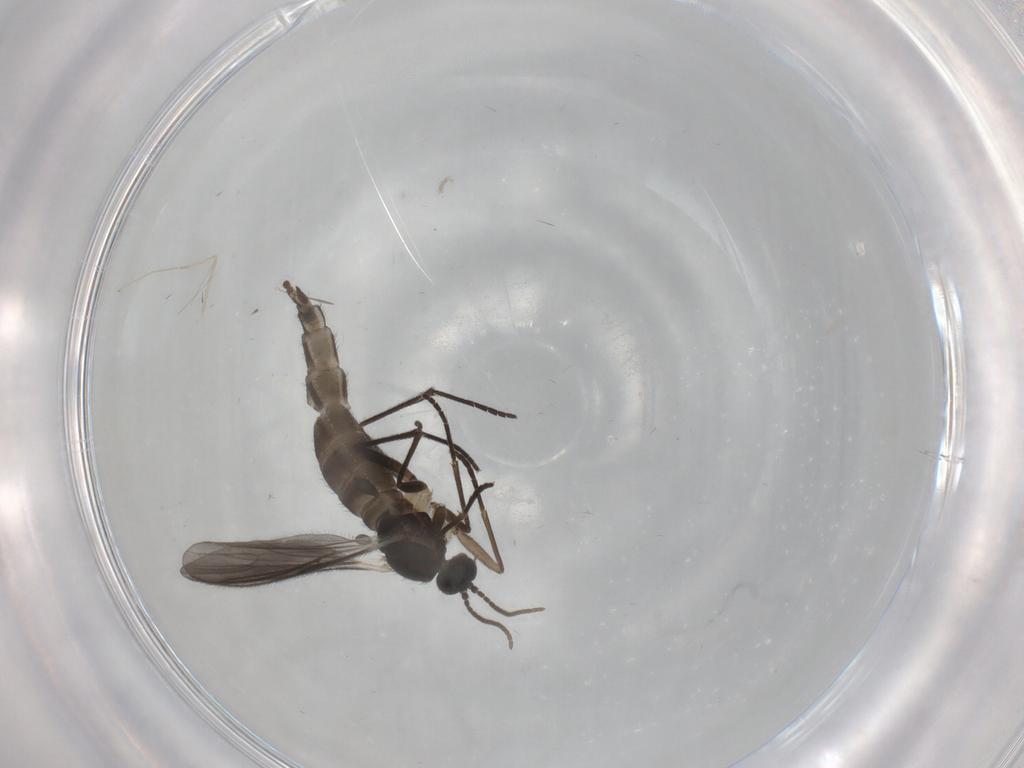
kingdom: Animalia
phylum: Arthropoda
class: Insecta
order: Diptera
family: Sciaridae
